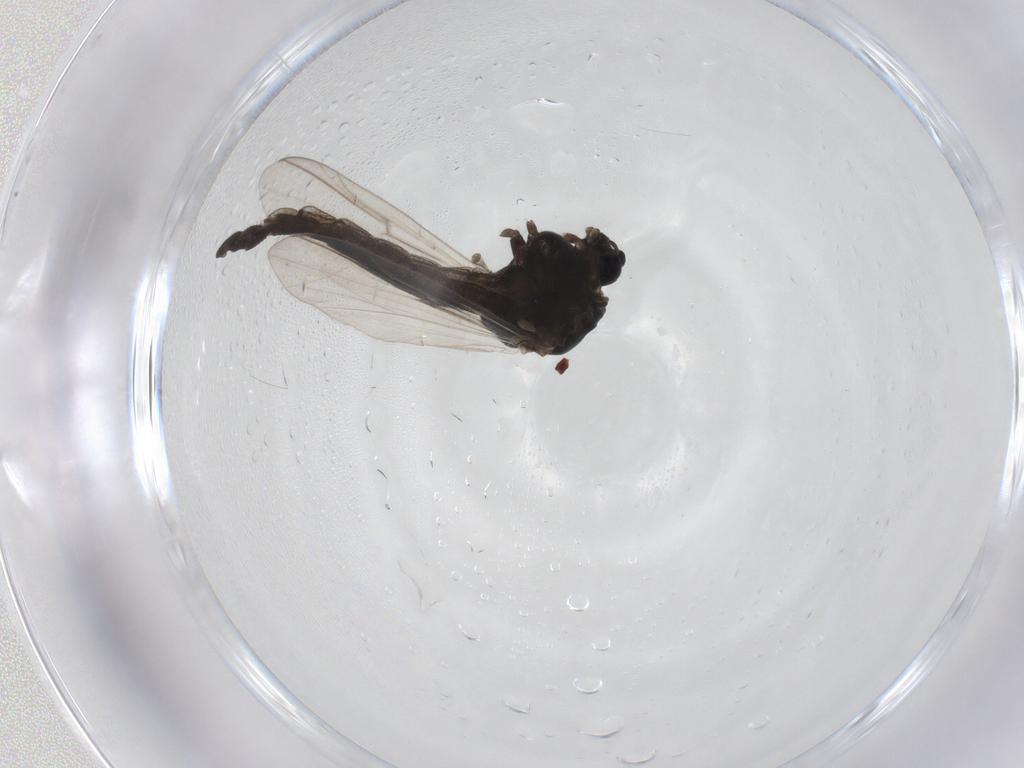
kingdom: Animalia
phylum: Arthropoda
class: Insecta
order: Diptera
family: Chironomidae
